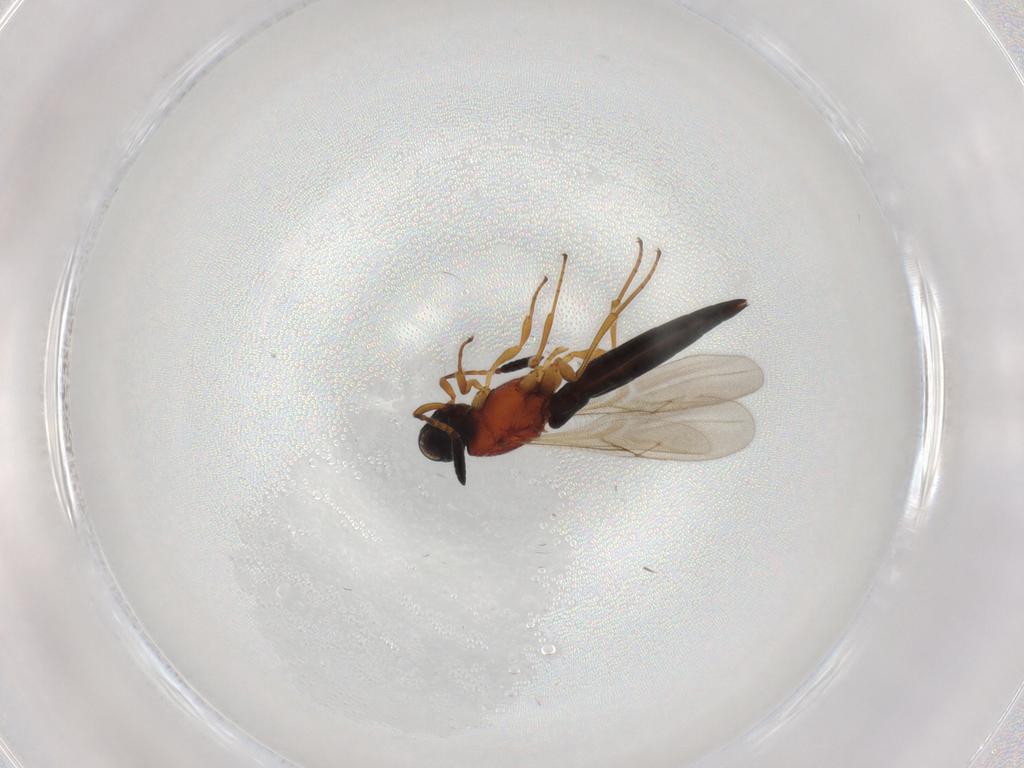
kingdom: Animalia
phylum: Arthropoda
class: Insecta
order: Hymenoptera
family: Scelionidae
